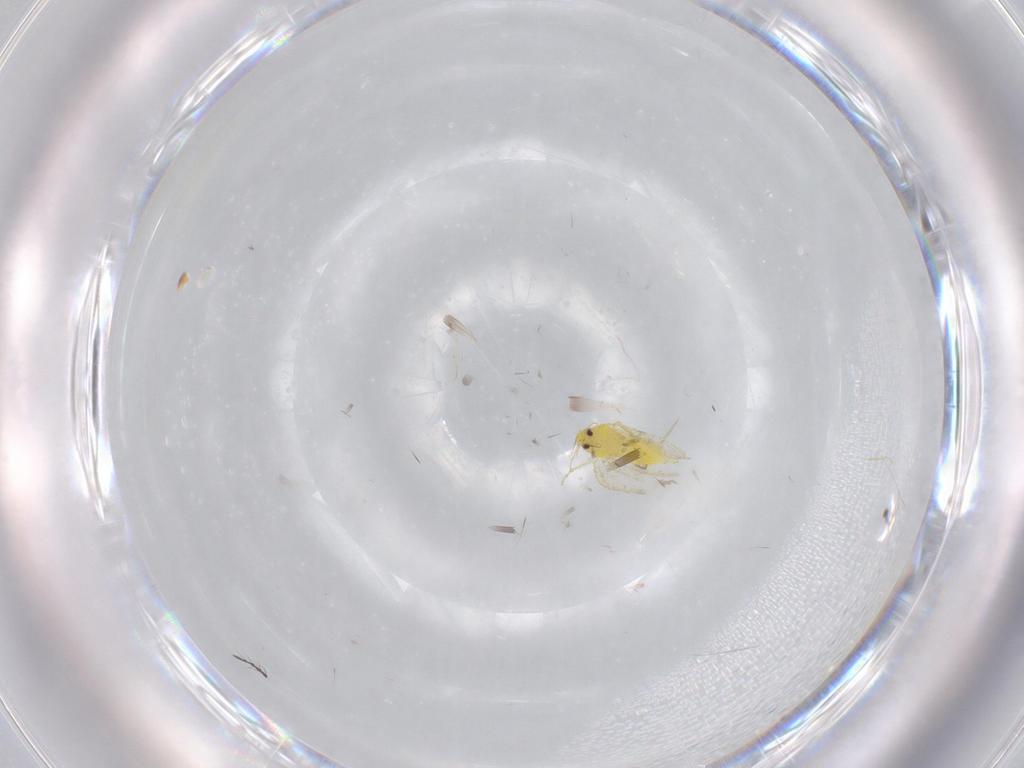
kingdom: Animalia
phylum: Arthropoda
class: Insecta
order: Hemiptera
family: Aleyrodidae
